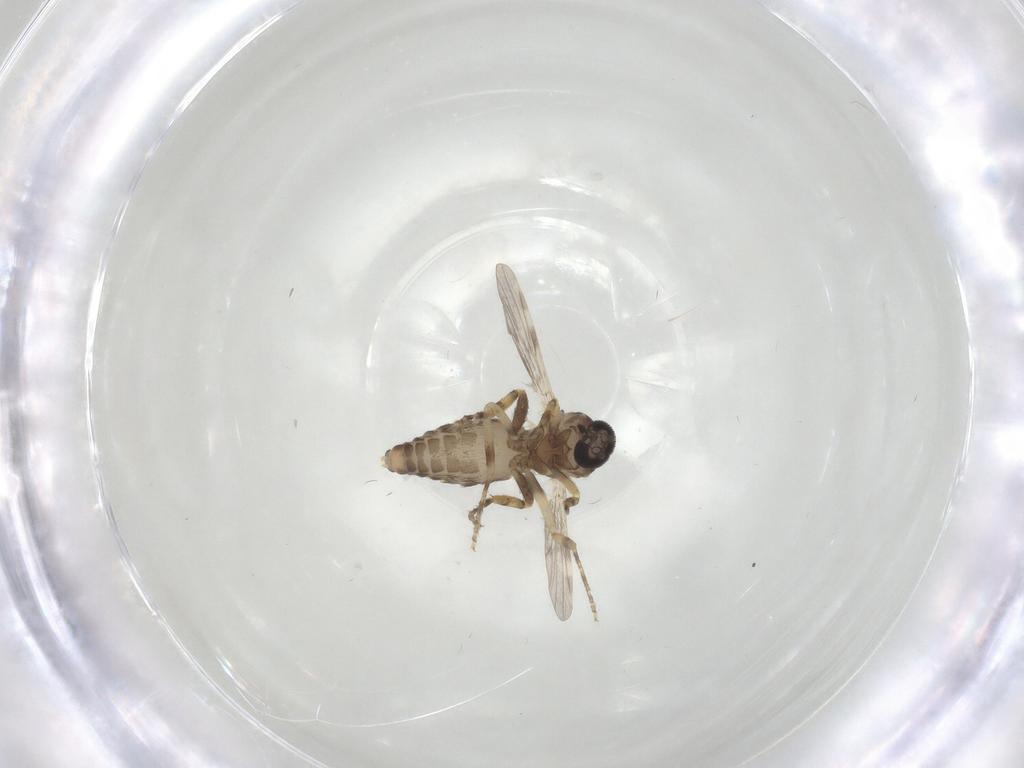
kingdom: Animalia
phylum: Arthropoda
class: Insecta
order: Diptera
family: Ceratopogonidae
